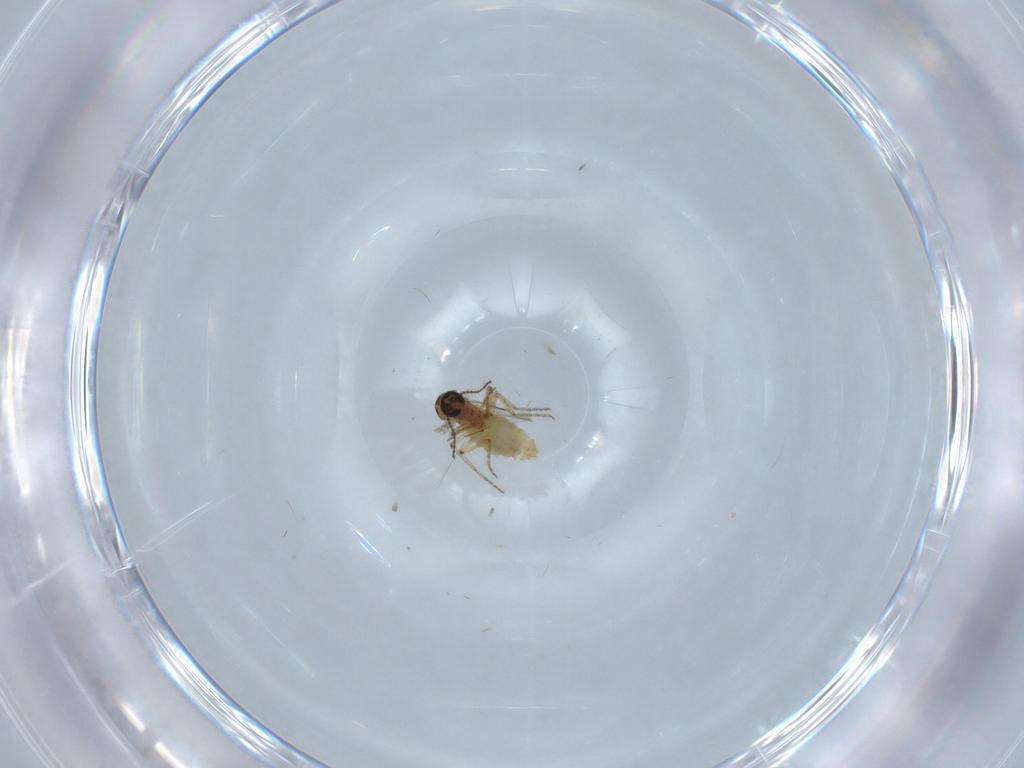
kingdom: Animalia
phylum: Arthropoda
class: Insecta
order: Diptera
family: Ceratopogonidae
